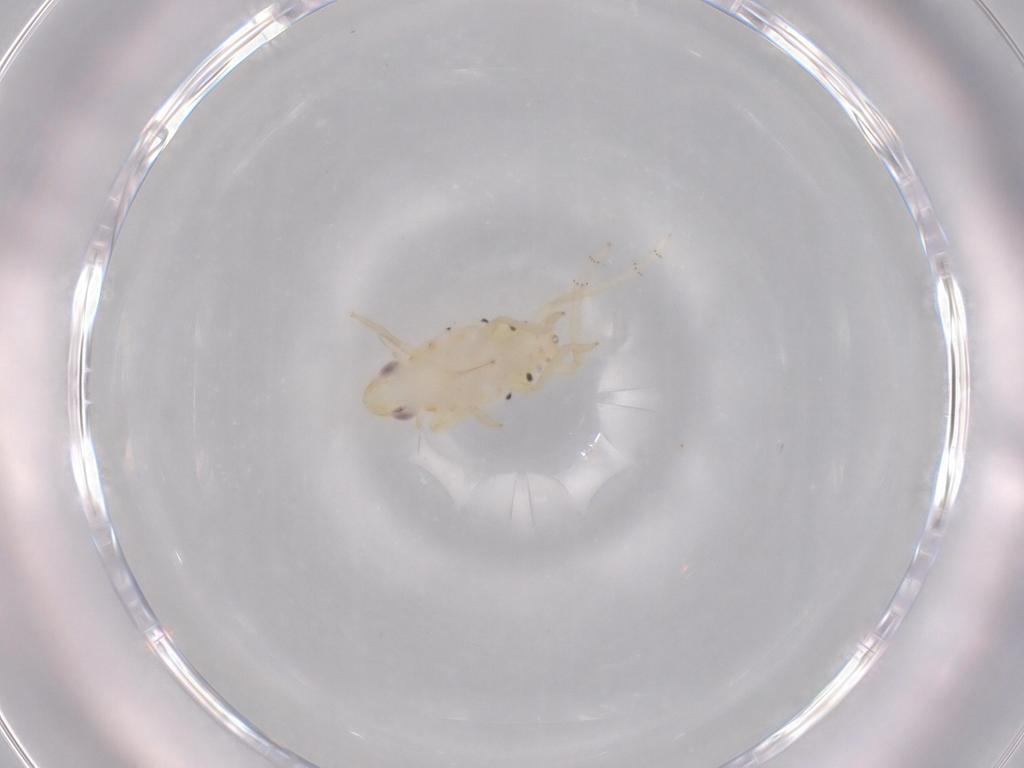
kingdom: Animalia
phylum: Arthropoda
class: Insecta
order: Hemiptera
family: Tropiduchidae
